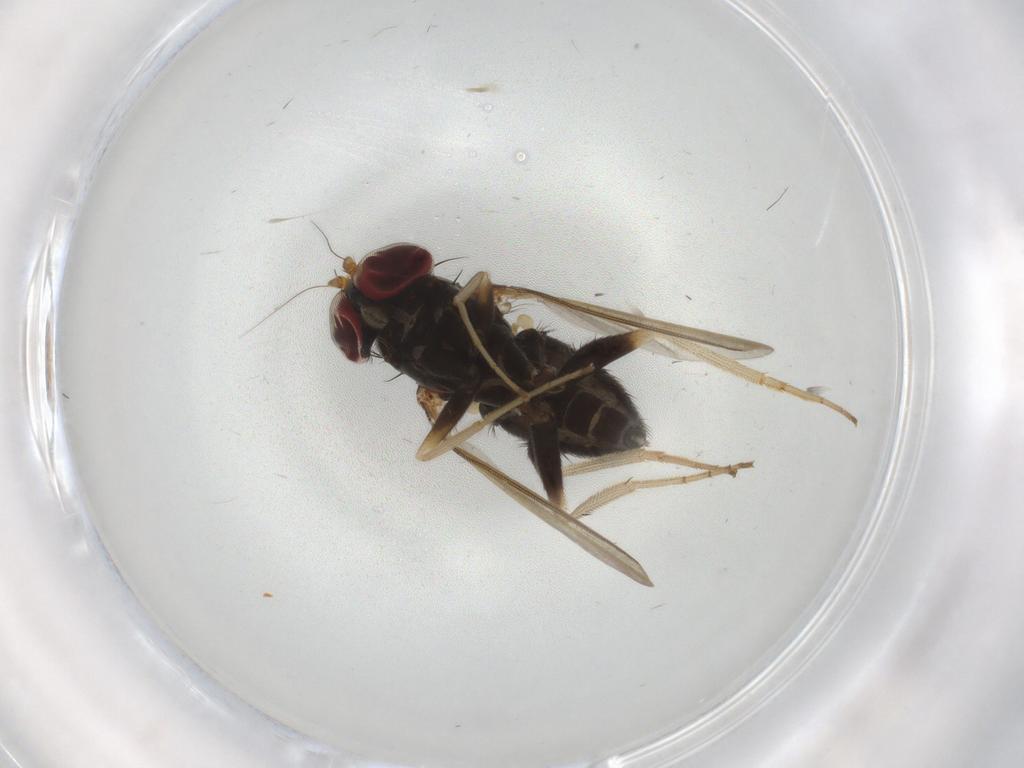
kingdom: Animalia
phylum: Arthropoda
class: Insecta
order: Diptera
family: Dolichopodidae
